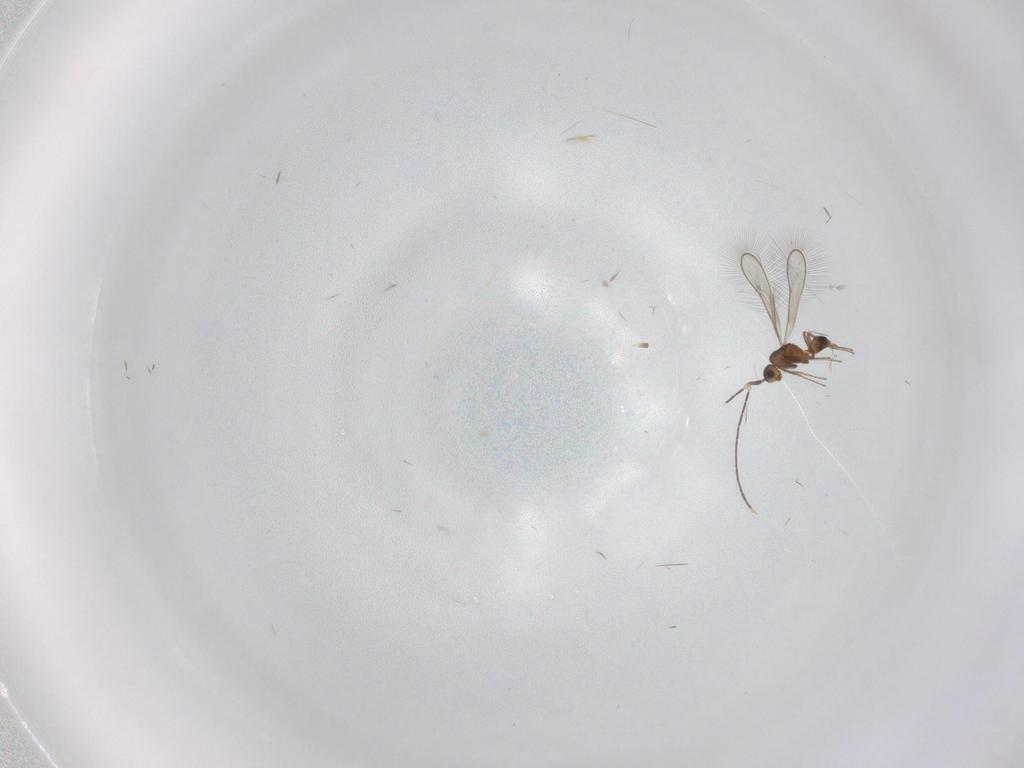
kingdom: Animalia
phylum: Arthropoda
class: Insecta
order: Hymenoptera
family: Mymaridae
